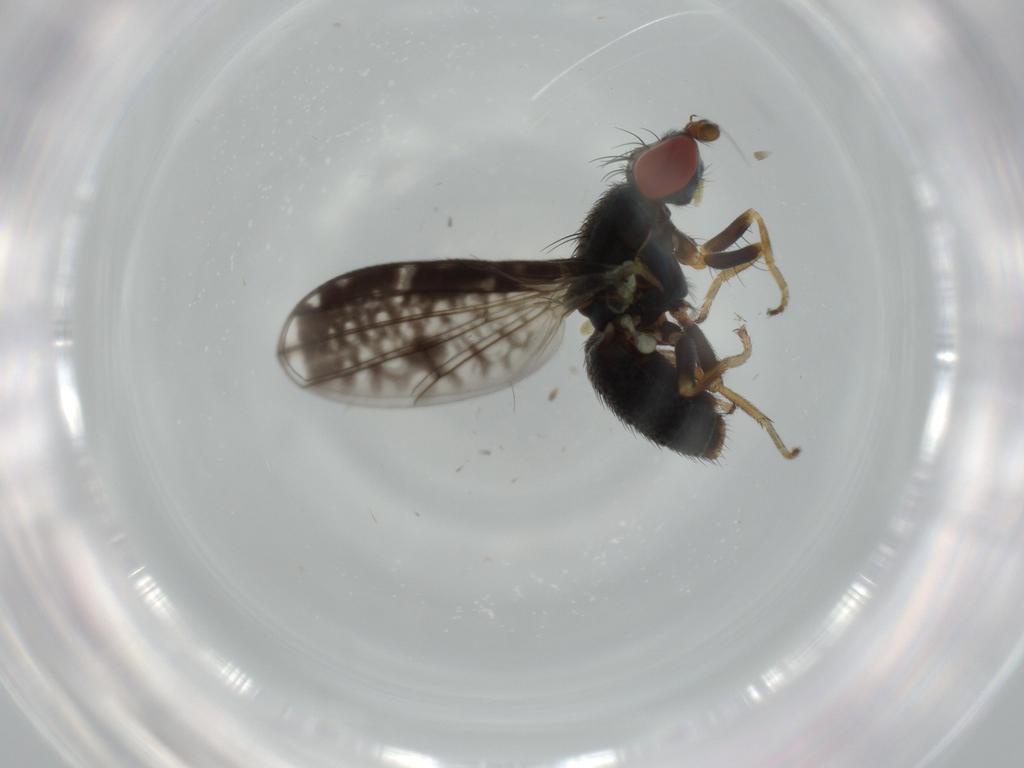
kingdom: Animalia
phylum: Arthropoda
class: Insecta
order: Diptera
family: Chamaemyiidae
